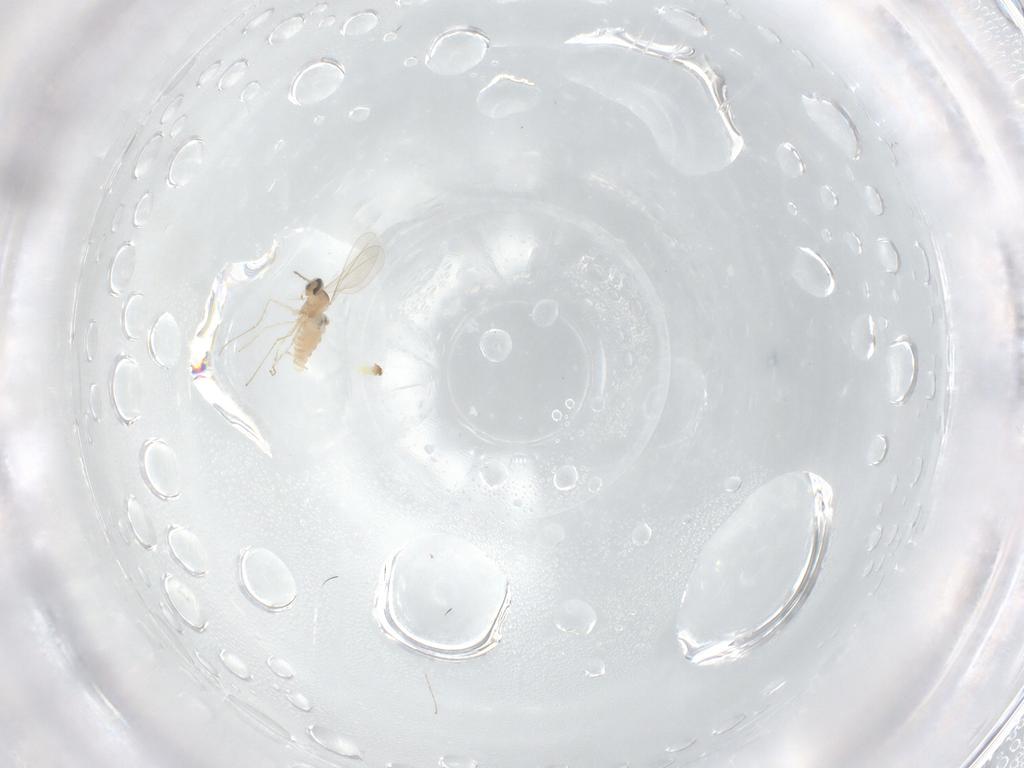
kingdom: Animalia
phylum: Arthropoda
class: Insecta
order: Diptera
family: Cecidomyiidae
